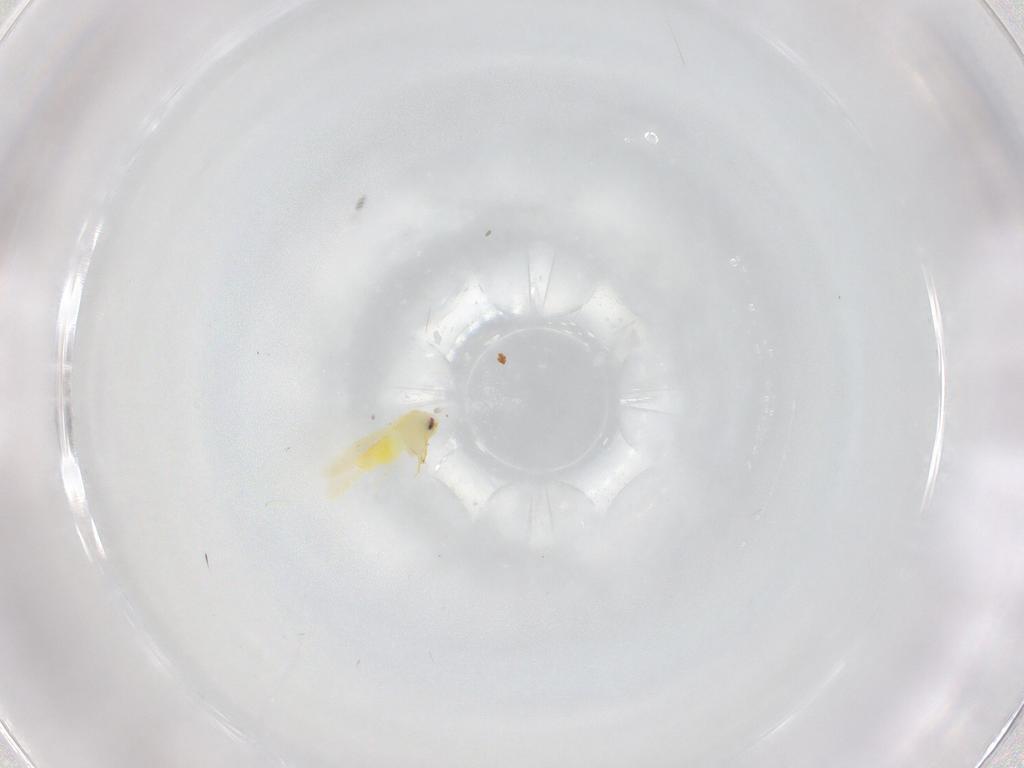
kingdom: Animalia
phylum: Arthropoda
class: Insecta
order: Hemiptera
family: Aleyrodidae
